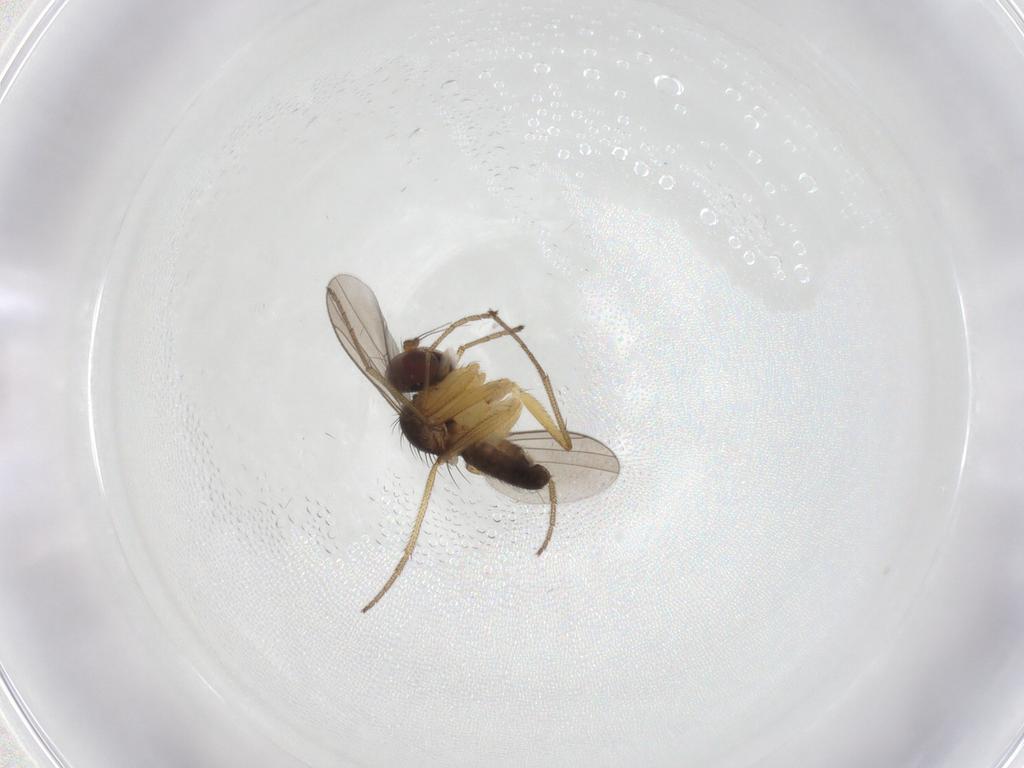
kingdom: Animalia
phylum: Arthropoda
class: Insecta
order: Diptera
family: Dolichopodidae
